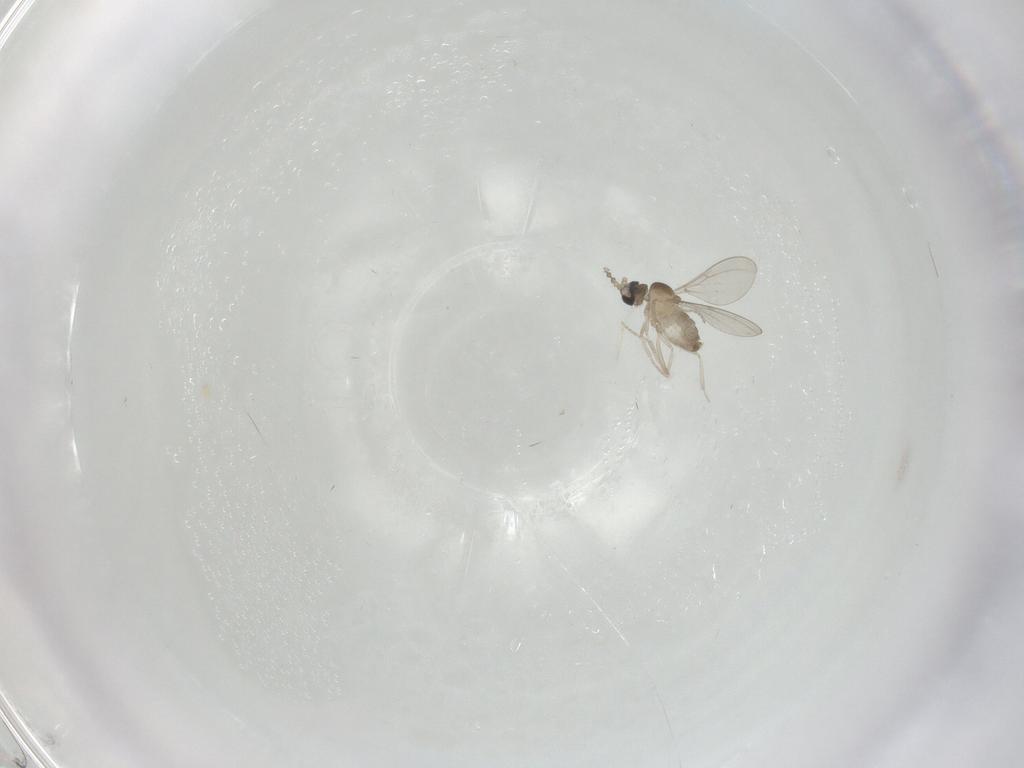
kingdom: Animalia
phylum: Arthropoda
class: Insecta
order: Diptera
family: Cecidomyiidae
